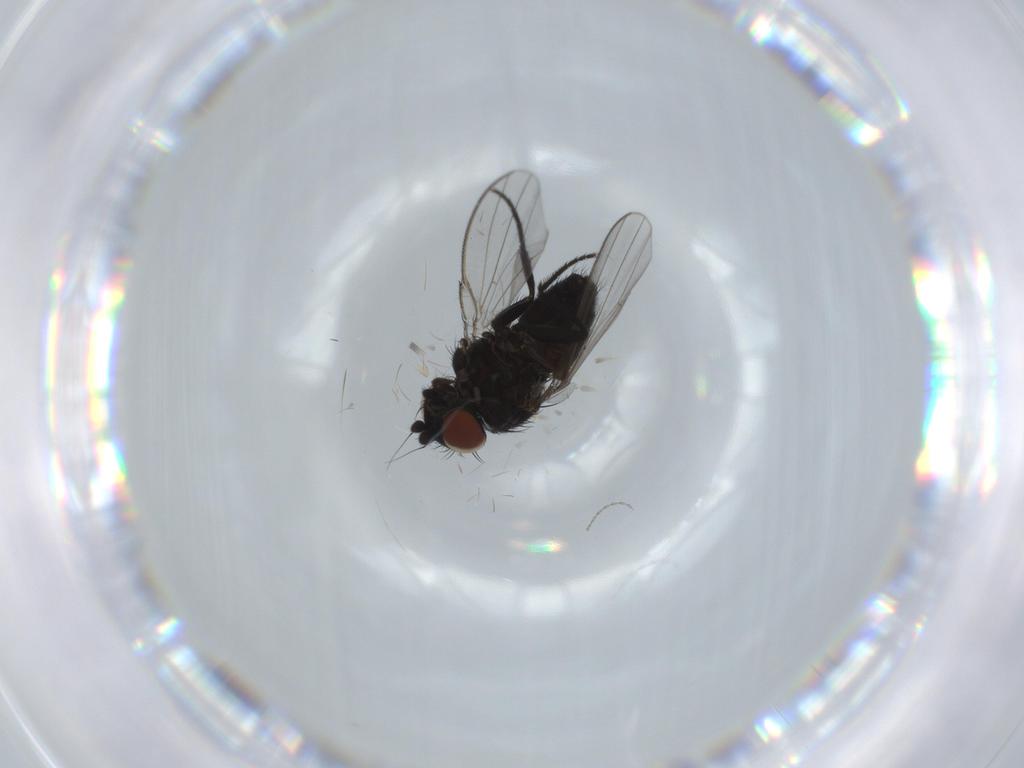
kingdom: Animalia
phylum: Arthropoda
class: Insecta
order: Diptera
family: Milichiidae
